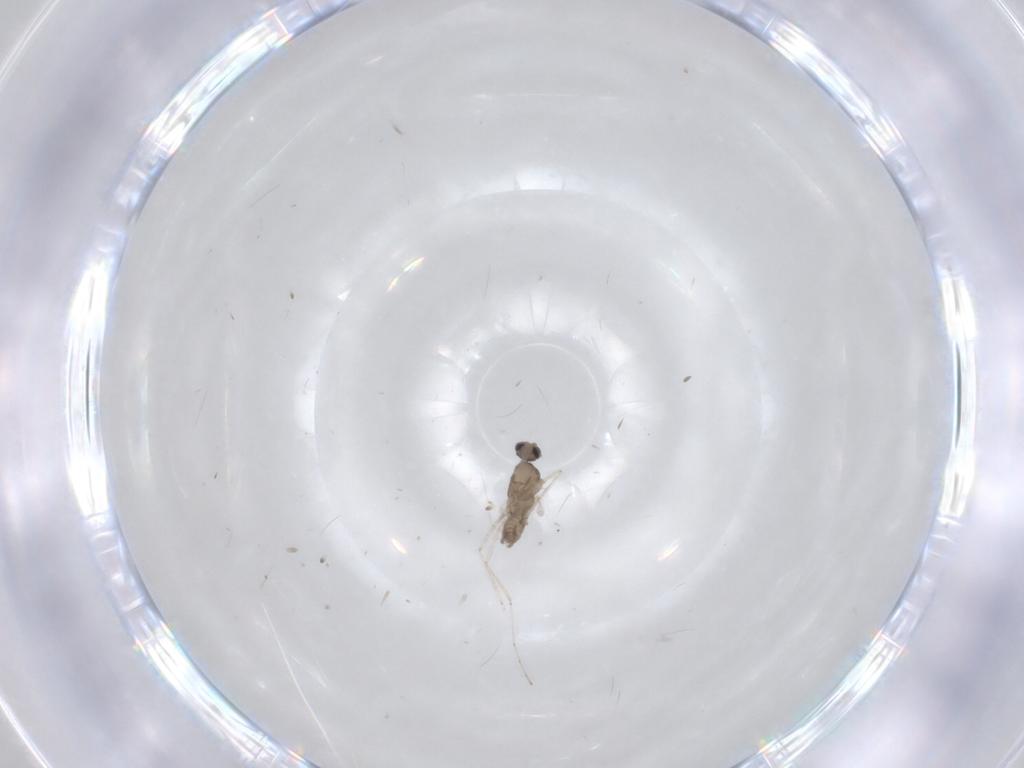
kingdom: Animalia
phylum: Arthropoda
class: Insecta
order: Diptera
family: Cecidomyiidae
